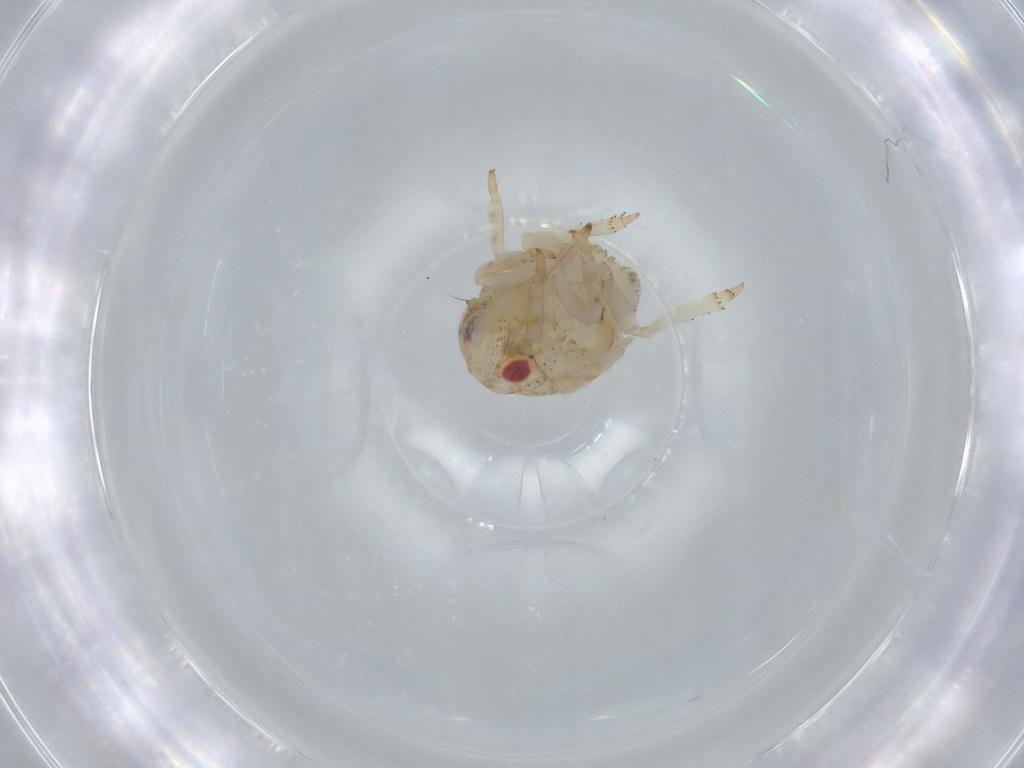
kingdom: Animalia
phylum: Arthropoda
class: Insecta
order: Hemiptera
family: Acanaloniidae
